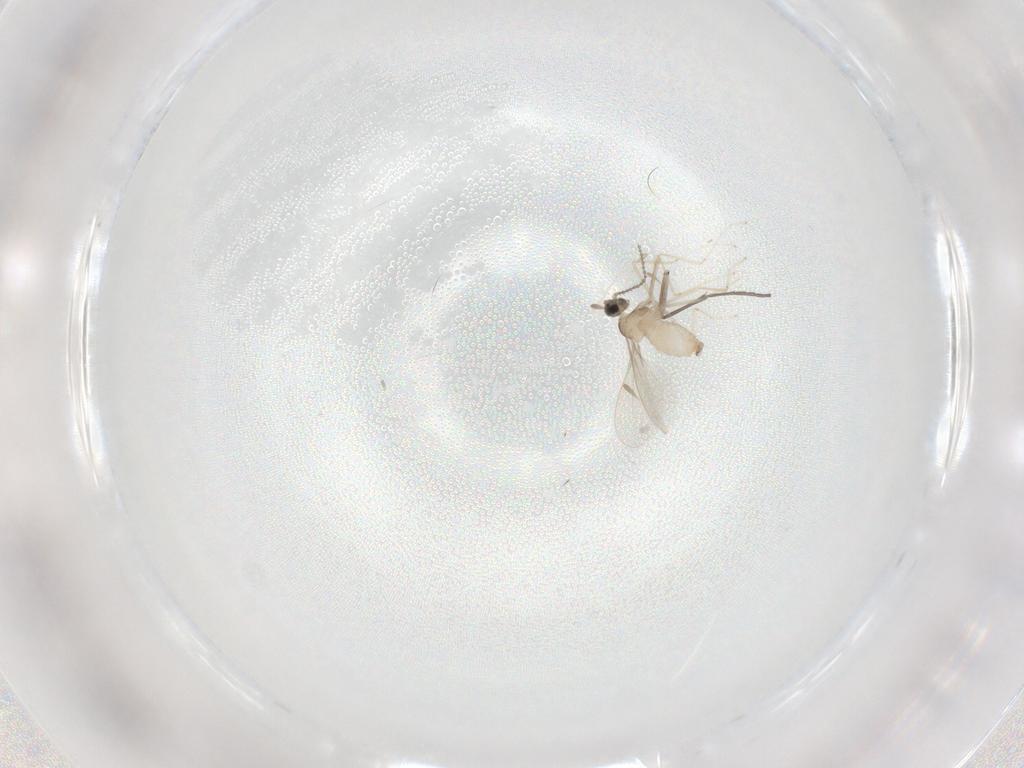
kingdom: Animalia
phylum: Arthropoda
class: Insecta
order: Diptera
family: Cecidomyiidae
